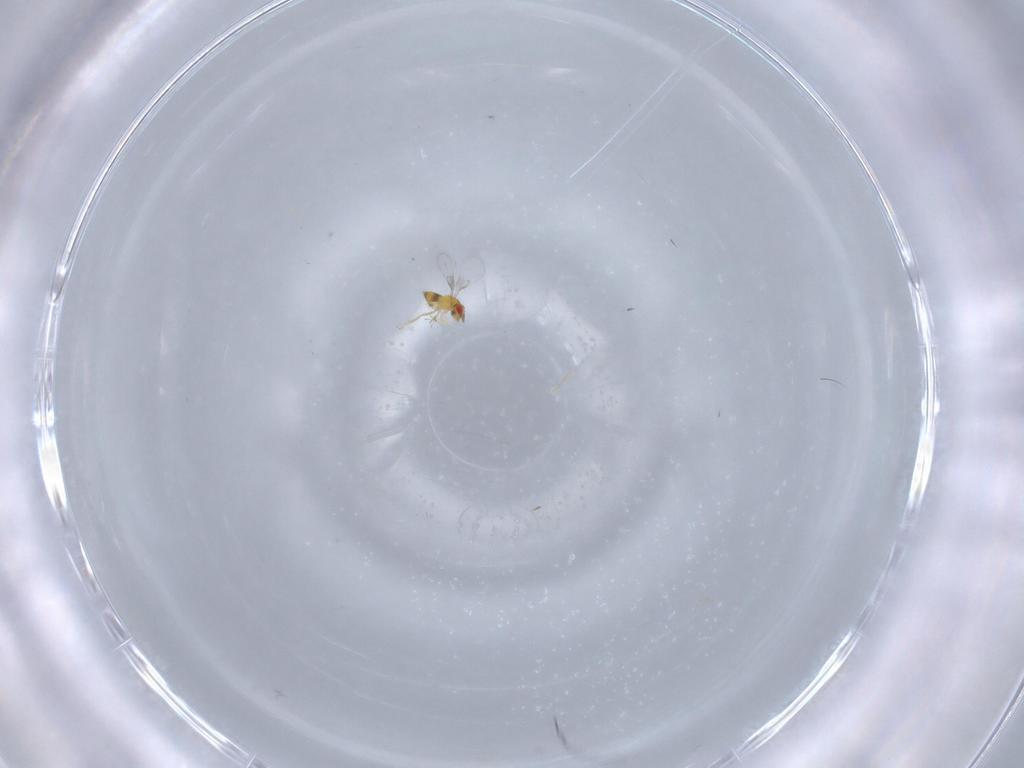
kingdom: Animalia
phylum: Arthropoda
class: Insecta
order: Hymenoptera
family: Trichogrammatidae
